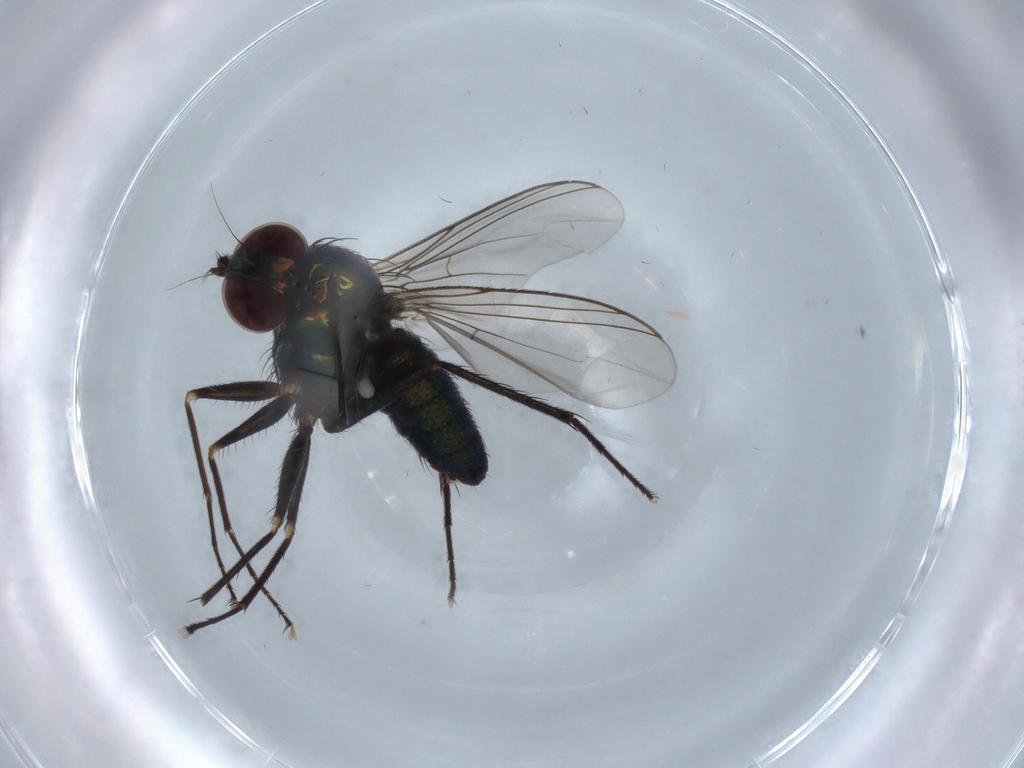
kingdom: Animalia
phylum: Arthropoda
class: Insecta
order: Diptera
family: Dolichopodidae
